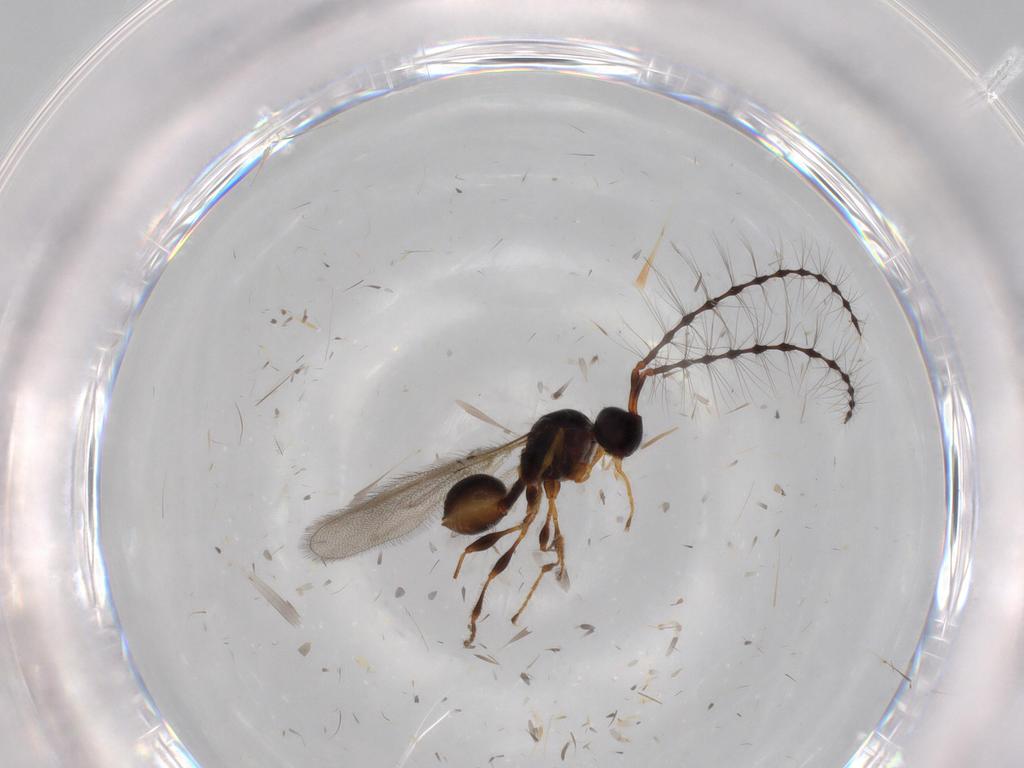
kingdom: Animalia
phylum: Arthropoda
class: Insecta
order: Hymenoptera
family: Diapriidae
